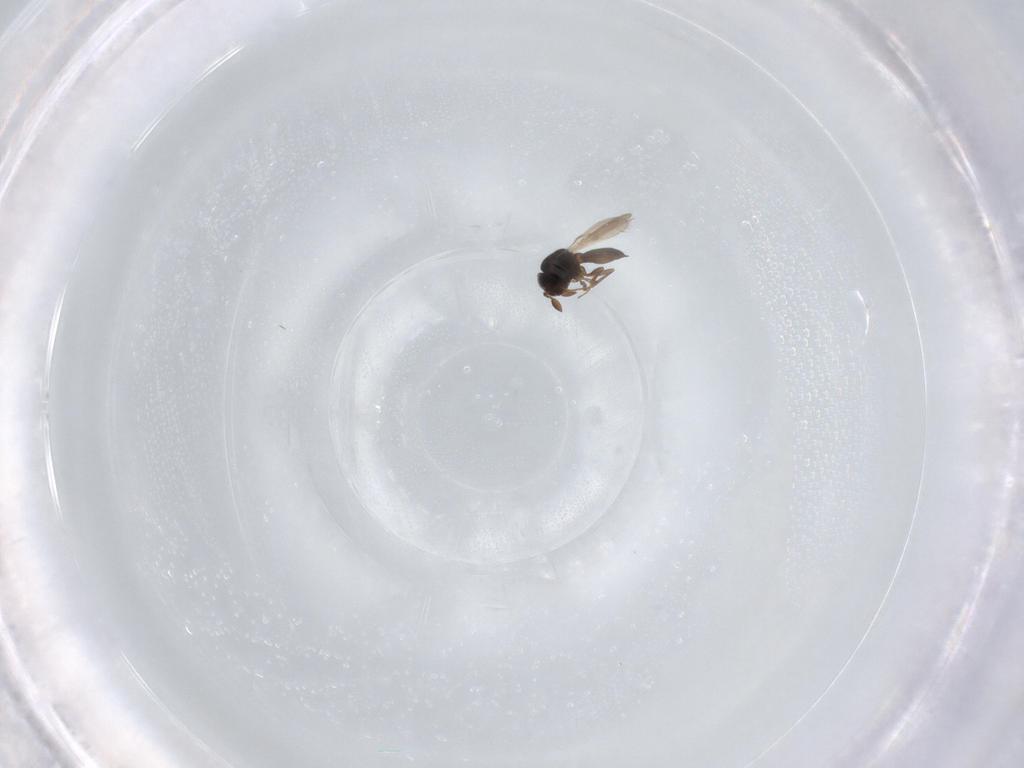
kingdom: Animalia
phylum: Arthropoda
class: Insecta
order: Hymenoptera
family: Scelionidae
